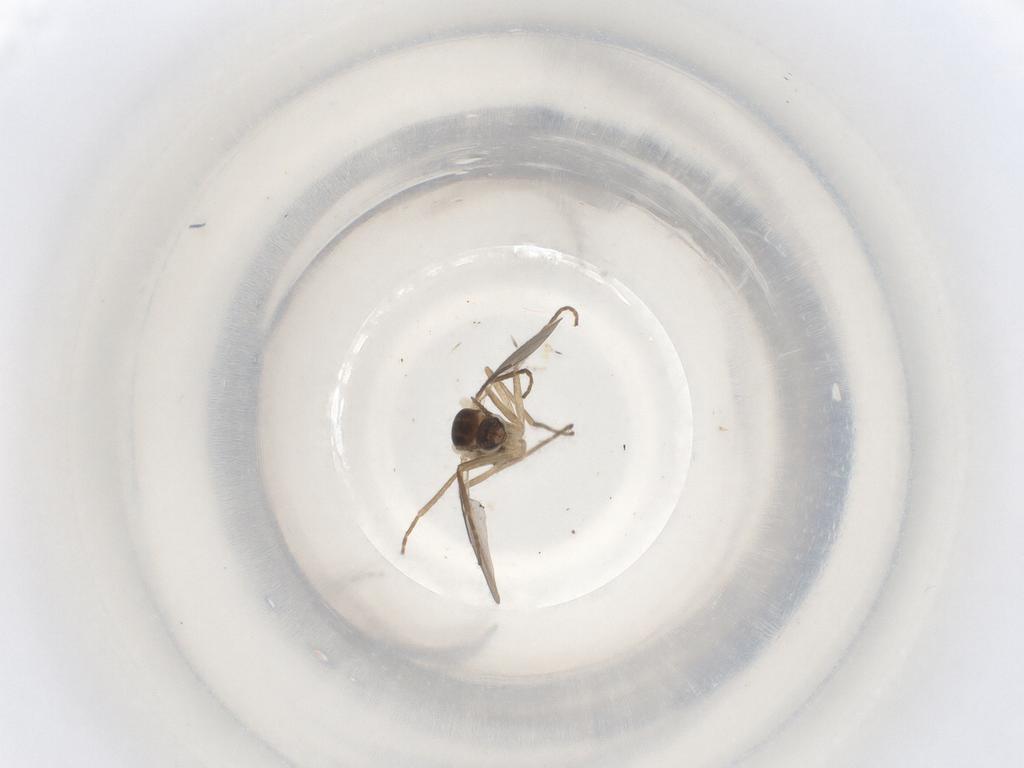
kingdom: Animalia
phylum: Arthropoda
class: Insecta
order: Diptera
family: Cecidomyiidae
